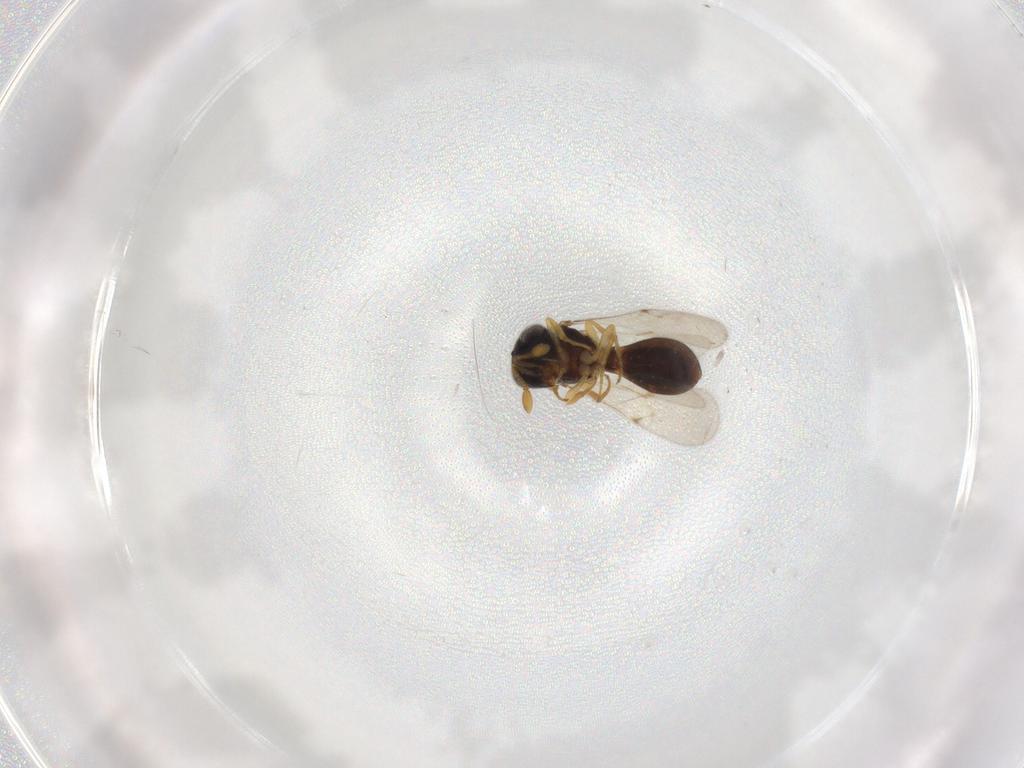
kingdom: Animalia
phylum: Arthropoda
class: Insecta
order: Hymenoptera
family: Scelionidae
